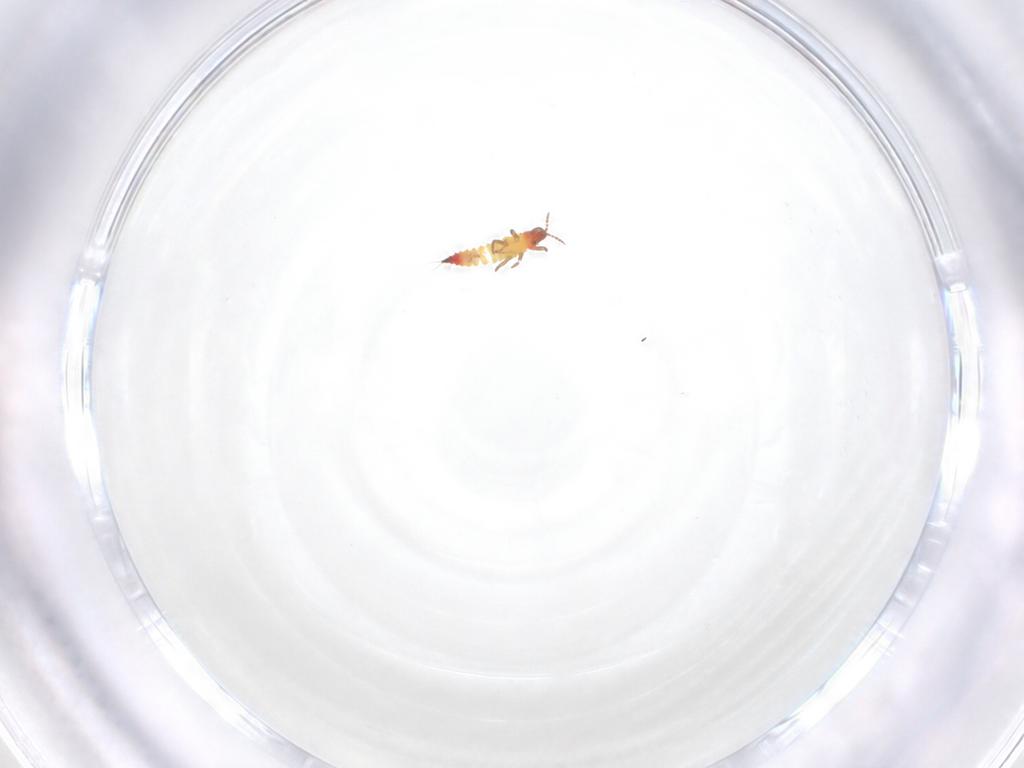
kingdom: Animalia
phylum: Arthropoda
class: Insecta
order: Thysanoptera
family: Phlaeothripidae
